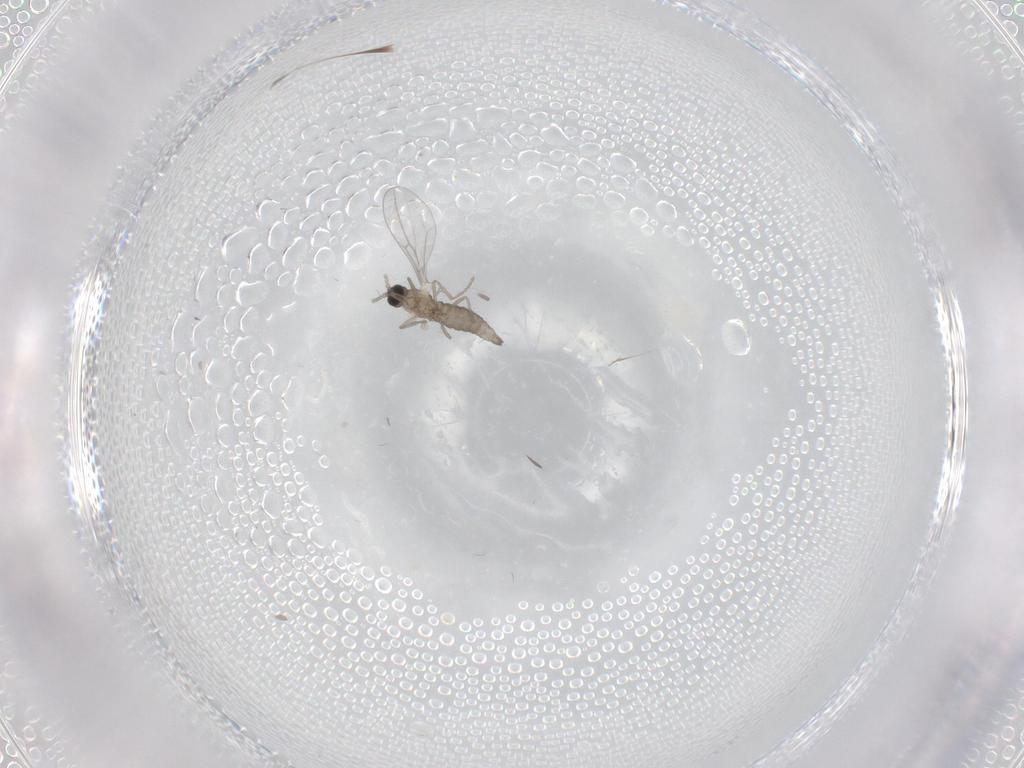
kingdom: Animalia
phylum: Arthropoda
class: Insecta
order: Diptera
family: Cecidomyiidae
